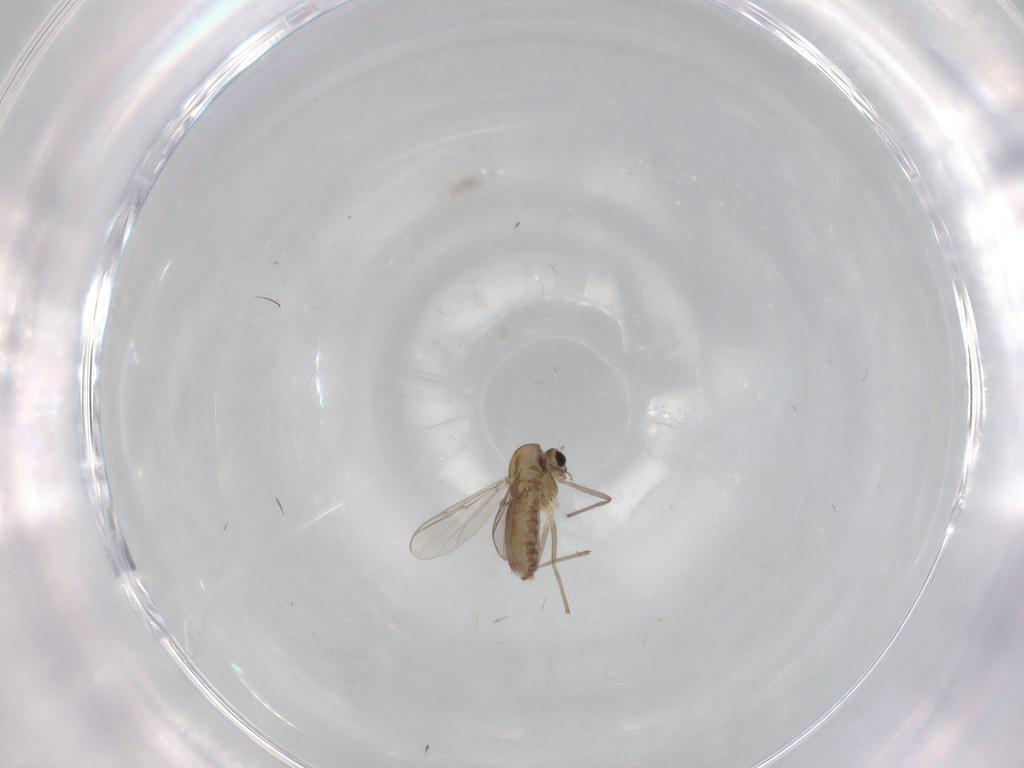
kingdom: Animalia
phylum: Arthropoda
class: Insecta
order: Diptera
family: Chironomidae
